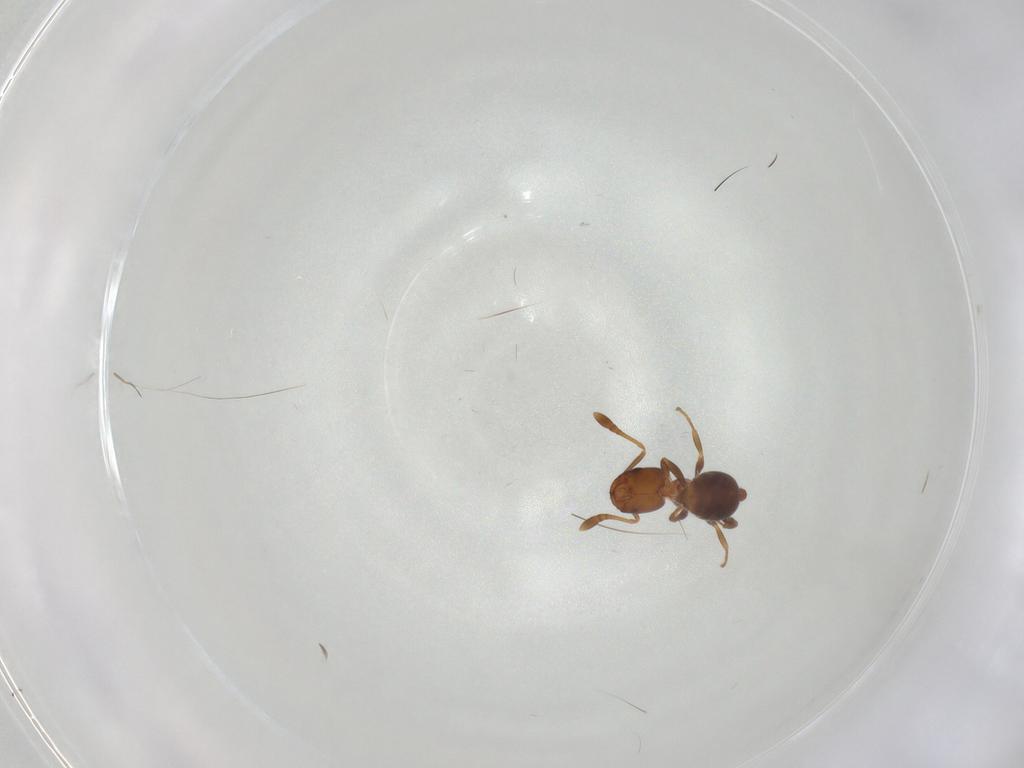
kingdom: Animalia
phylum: Arthropoda
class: Insecta
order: Hymenoptera
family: Formicidae
